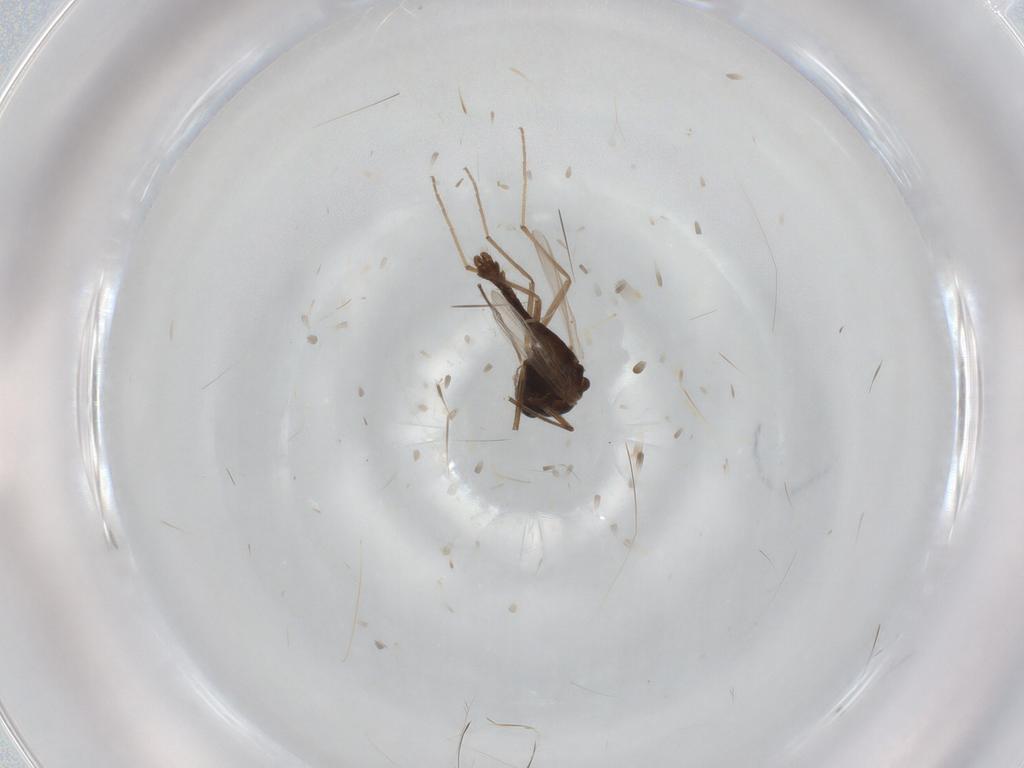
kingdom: Animalia
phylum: Arthropoda
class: Insecta
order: Diptera
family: Chironomidae
